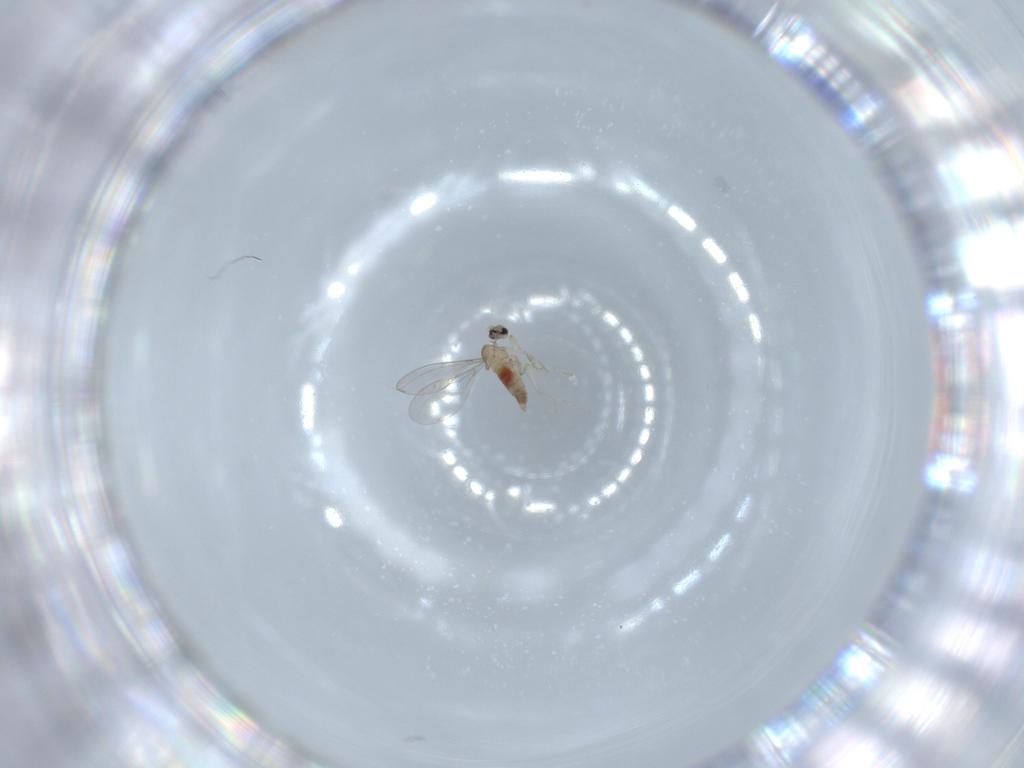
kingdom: Animalia
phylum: Arthropoda
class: Insecta
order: Diptera
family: Cecidomyiidae
